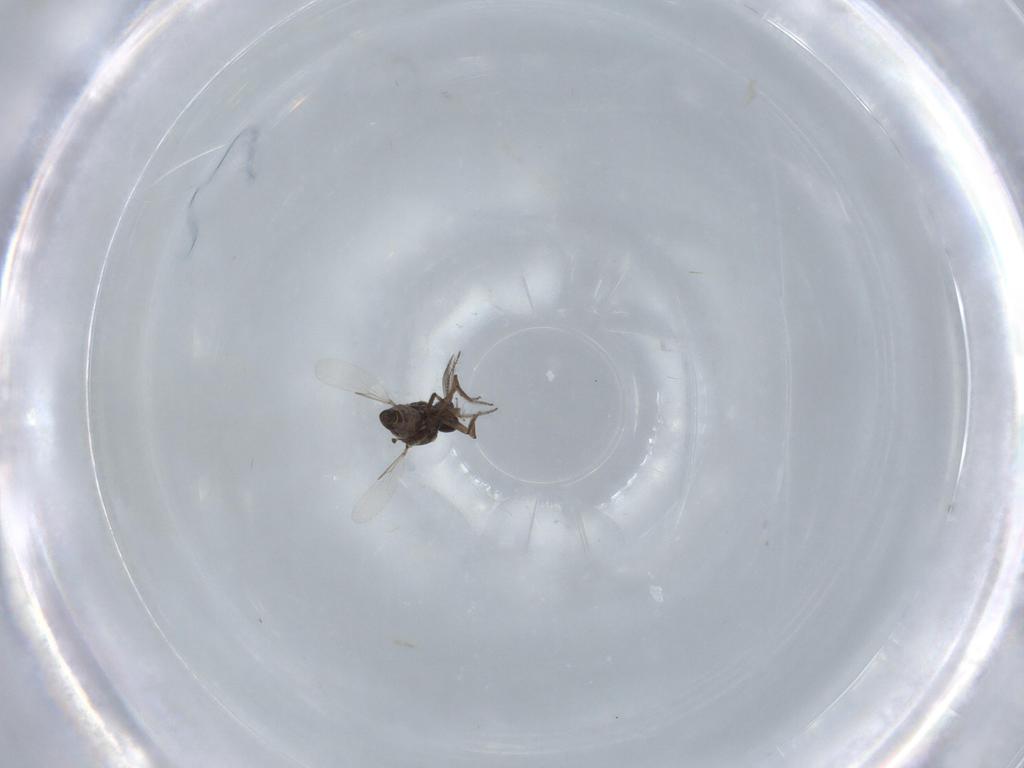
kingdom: Animalia
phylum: Arthropoda
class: Insecta
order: Diptera
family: Ceratopogonidae
